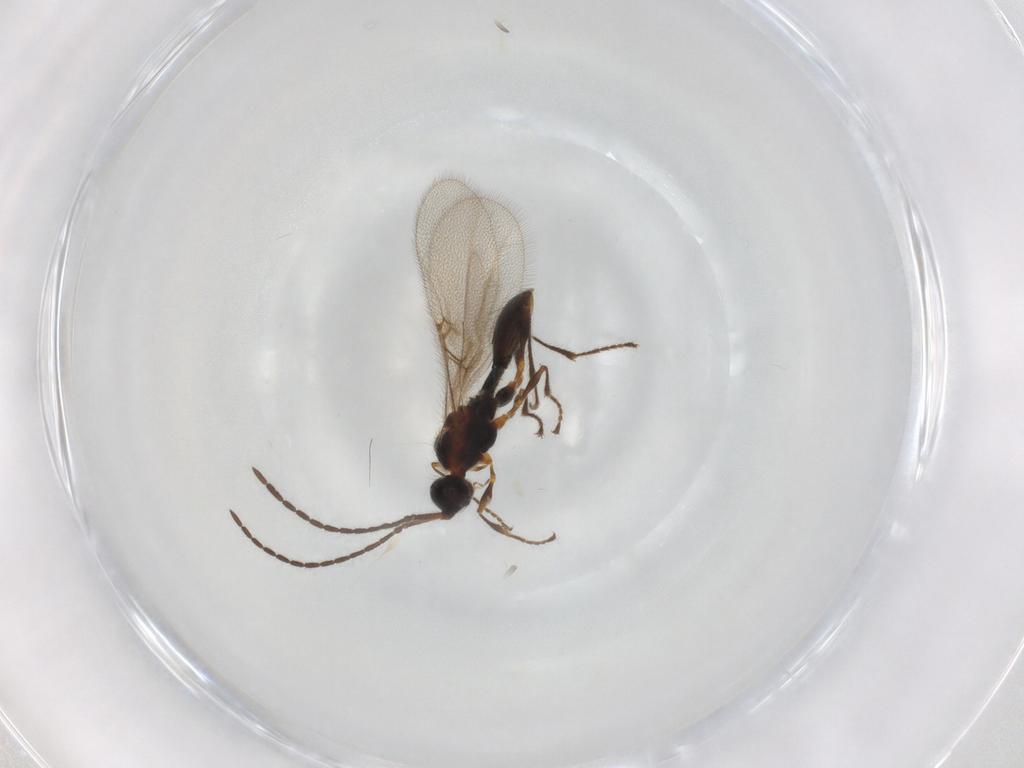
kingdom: Animalia
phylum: Arthropoda
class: Insecta
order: Hymenoptera
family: Diapriidae
